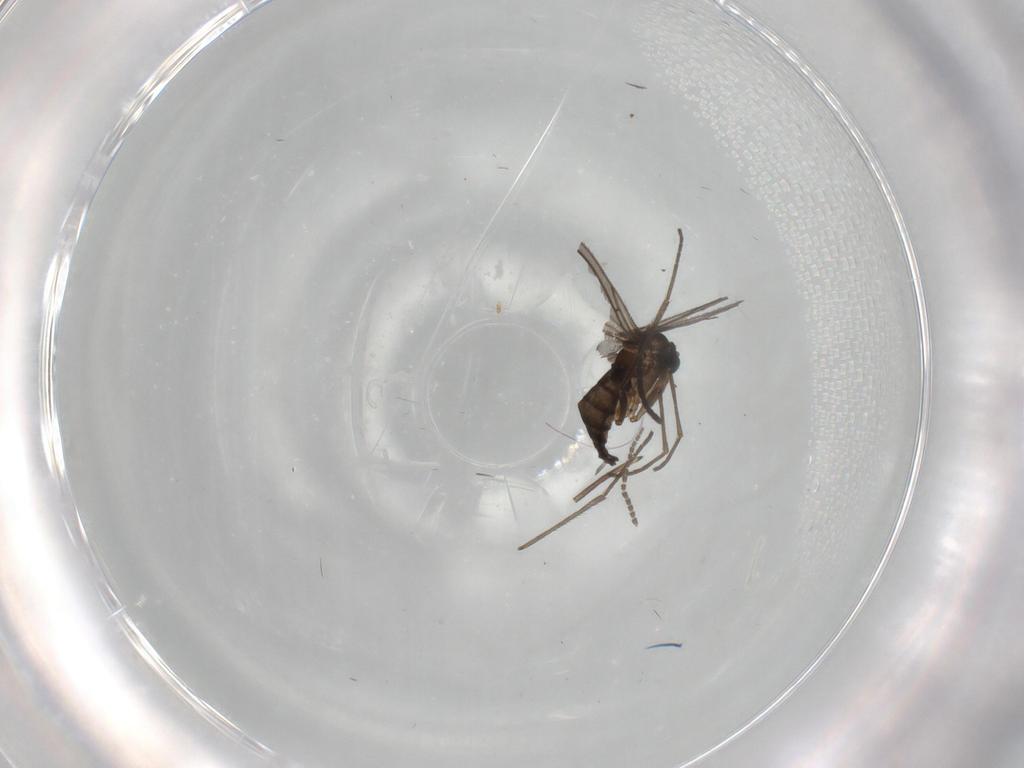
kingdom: Animalia
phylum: Arthropoda
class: Insecta
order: Diptera
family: Sciaridae
